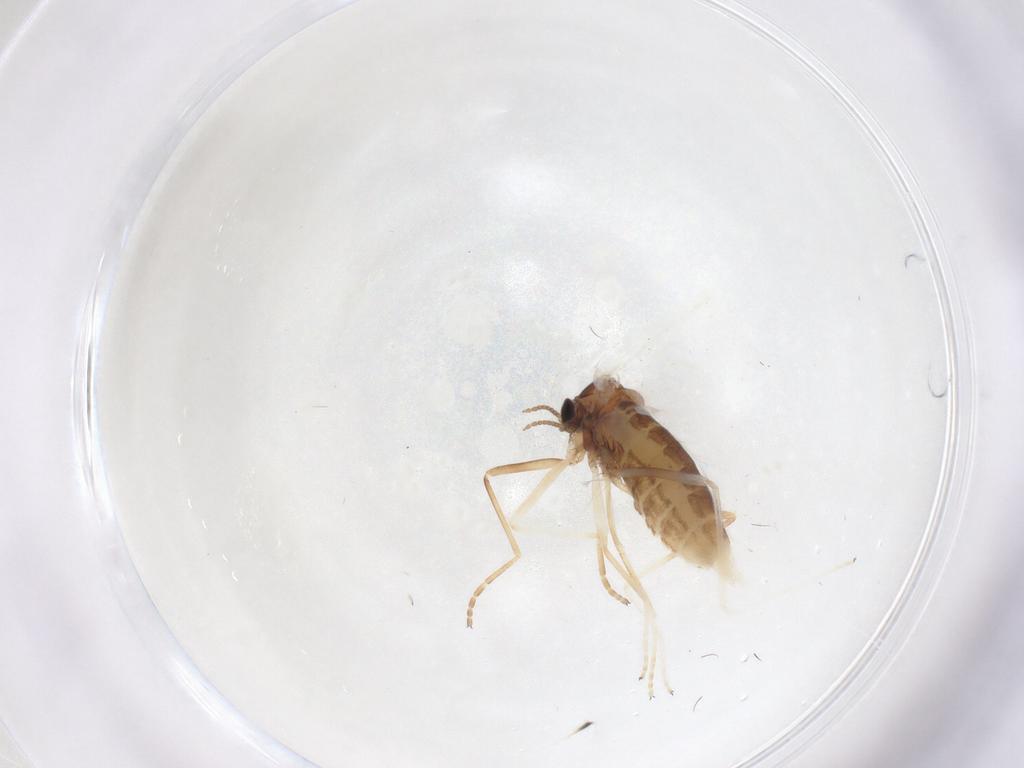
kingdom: Animalia
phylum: Arthropoda
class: Insecta
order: Diptera
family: Cecidomyiidae
